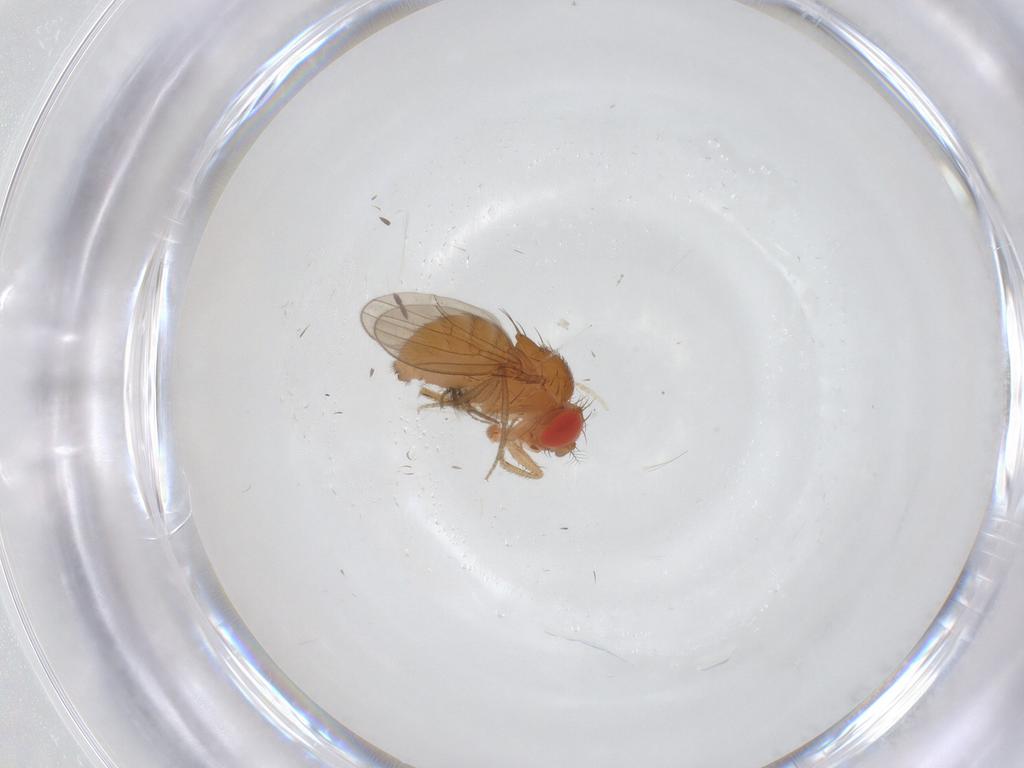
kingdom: Animalia
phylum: Arthropoda
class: Insecta
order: Diptera
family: Drosophilidae
